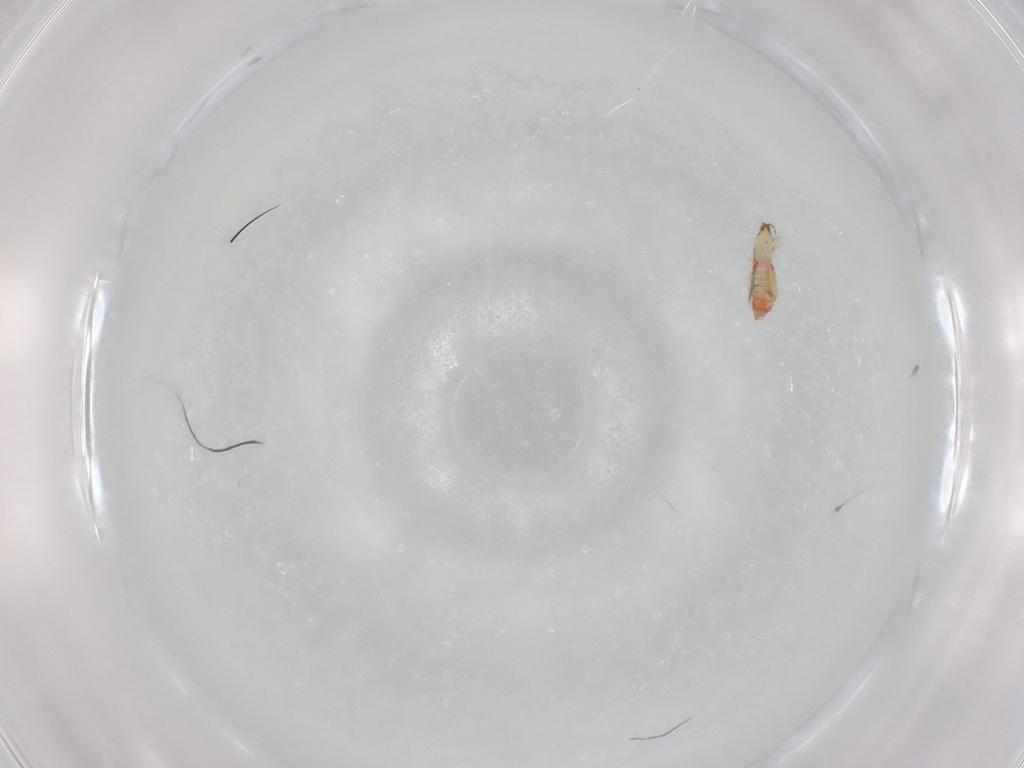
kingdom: Animalia
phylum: Arthropoda
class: Insecta
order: Thysanoptera
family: Thripidae
